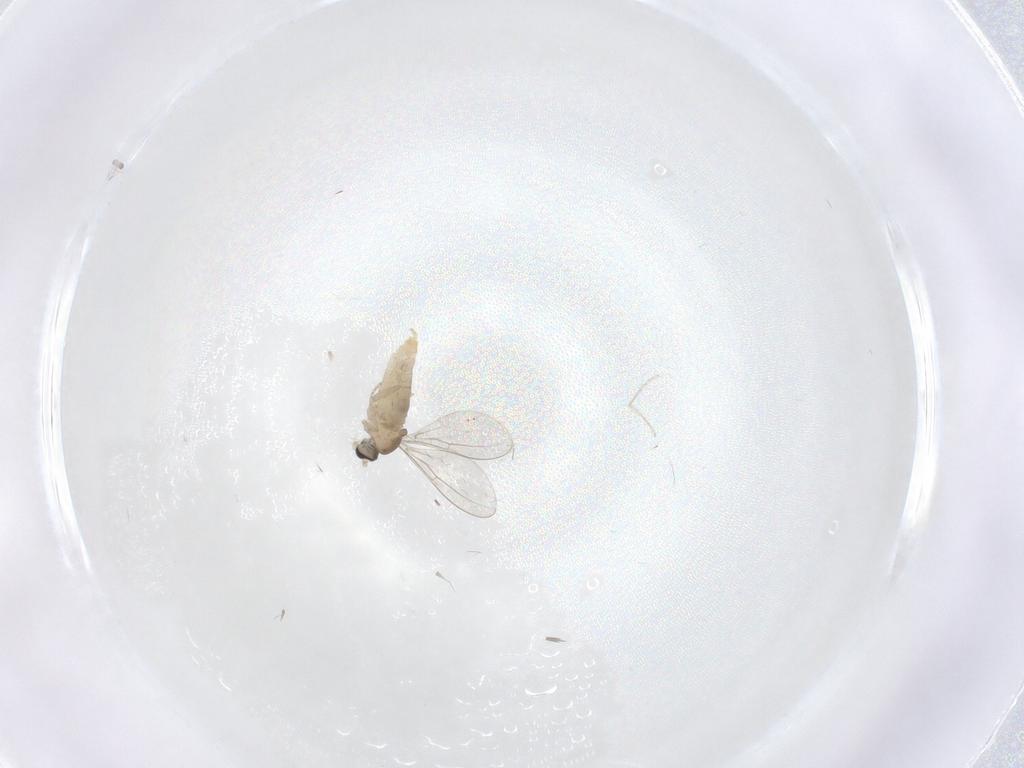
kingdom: Animalia
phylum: Arthropoda
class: Insecta
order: Diptera
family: Cecidomyiidae
